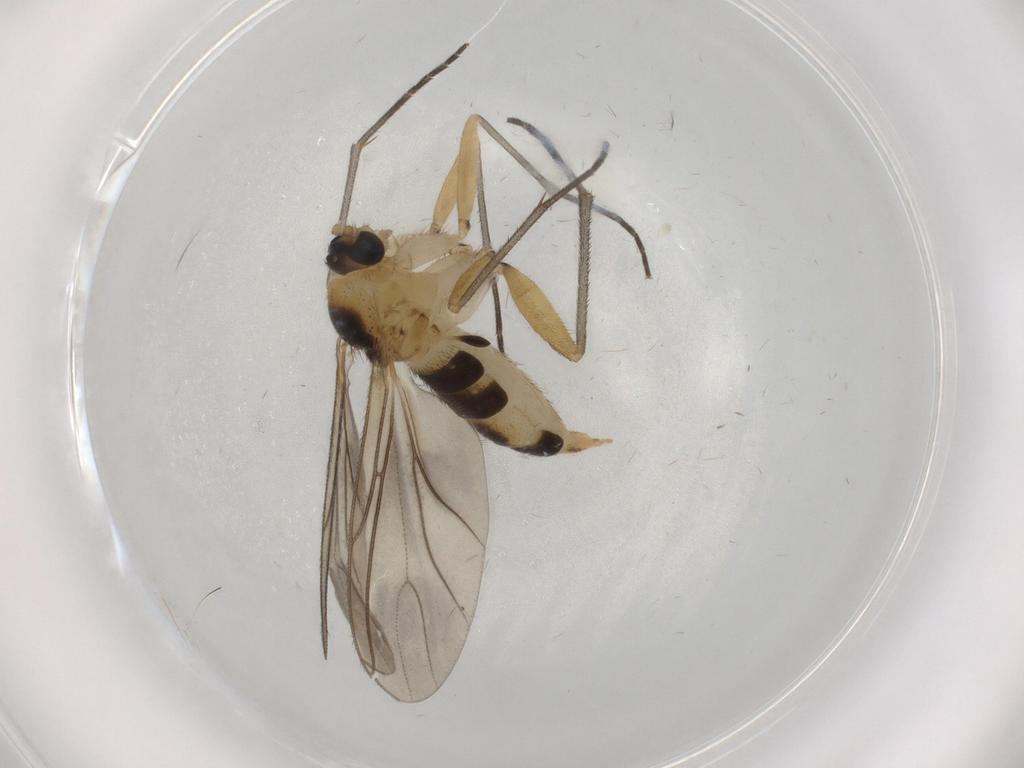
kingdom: Animalia
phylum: Arthropoda
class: Insecta
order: Diptera
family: Sciaridae
